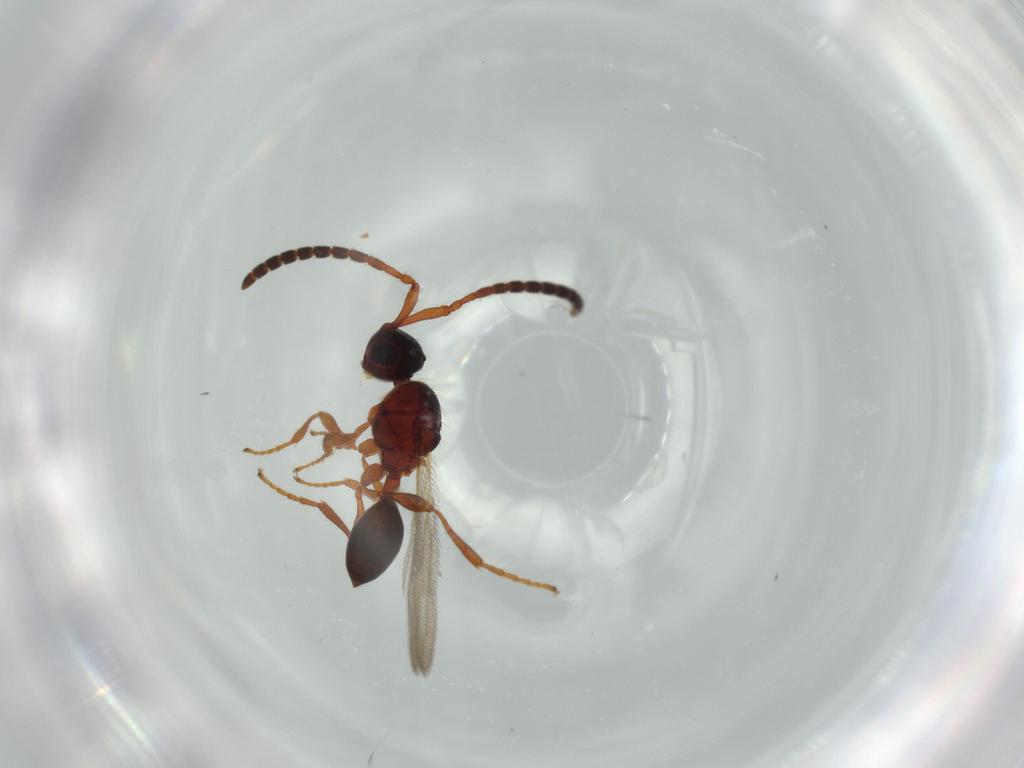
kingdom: Animalia
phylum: Arthropoda
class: Insecta
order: Hymenoptera
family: Diapriidae
